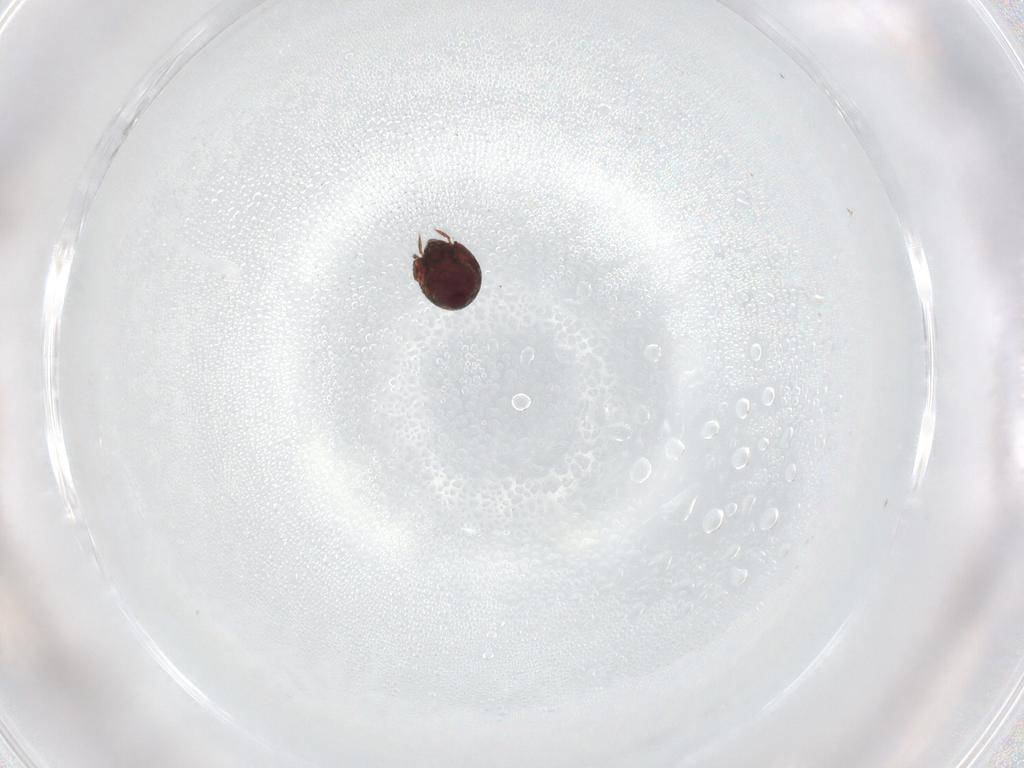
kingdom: Animalia
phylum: Arthropoda
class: Arachnida
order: Sarcoptiformes
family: Humerobatidae
